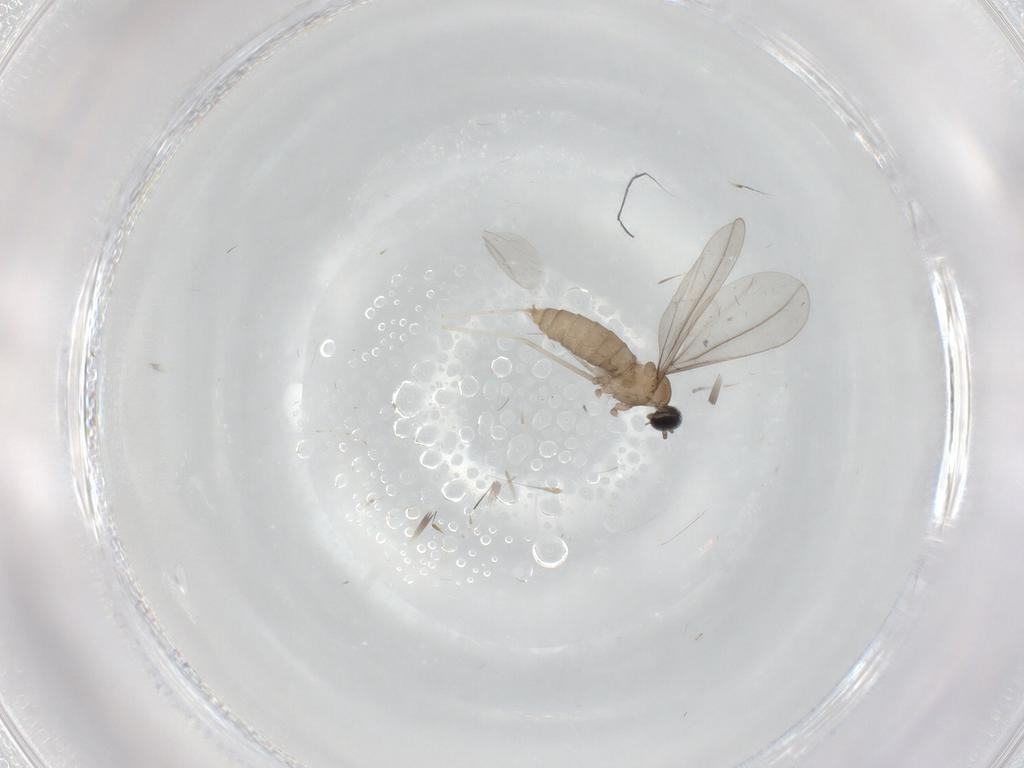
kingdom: Animalia
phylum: Arthropoda
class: Insecta
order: Diptera
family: Cecidomyiidae
